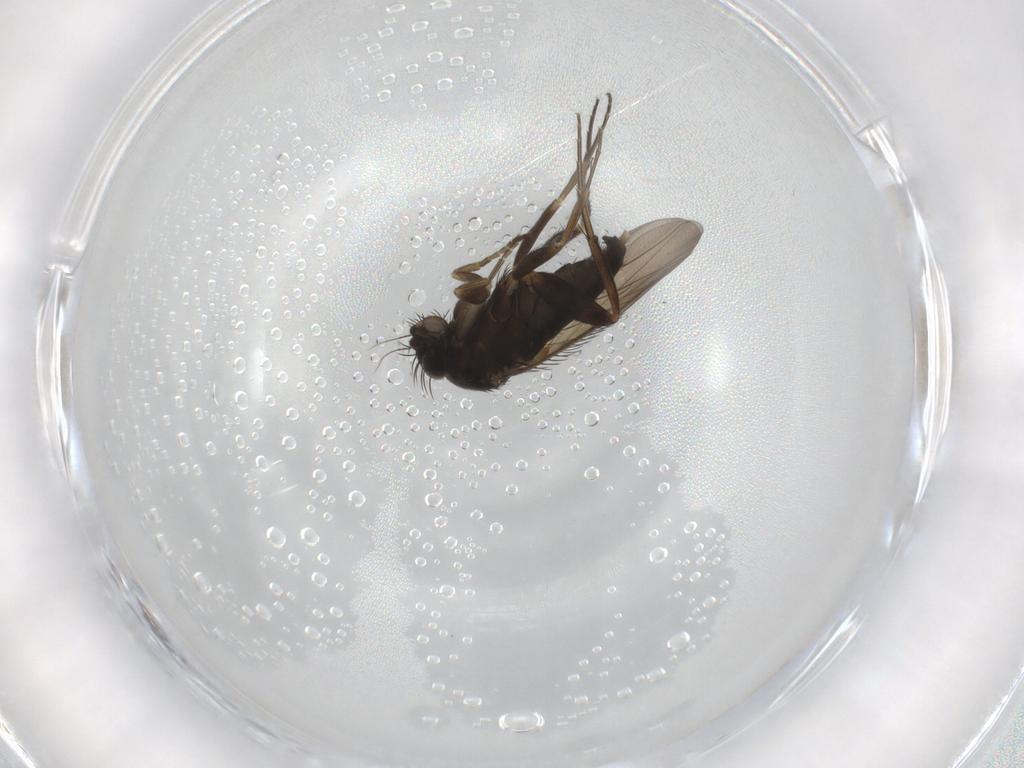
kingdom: Animalia
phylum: Arthropoda
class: Insecta
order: Diptera
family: Phoridae
